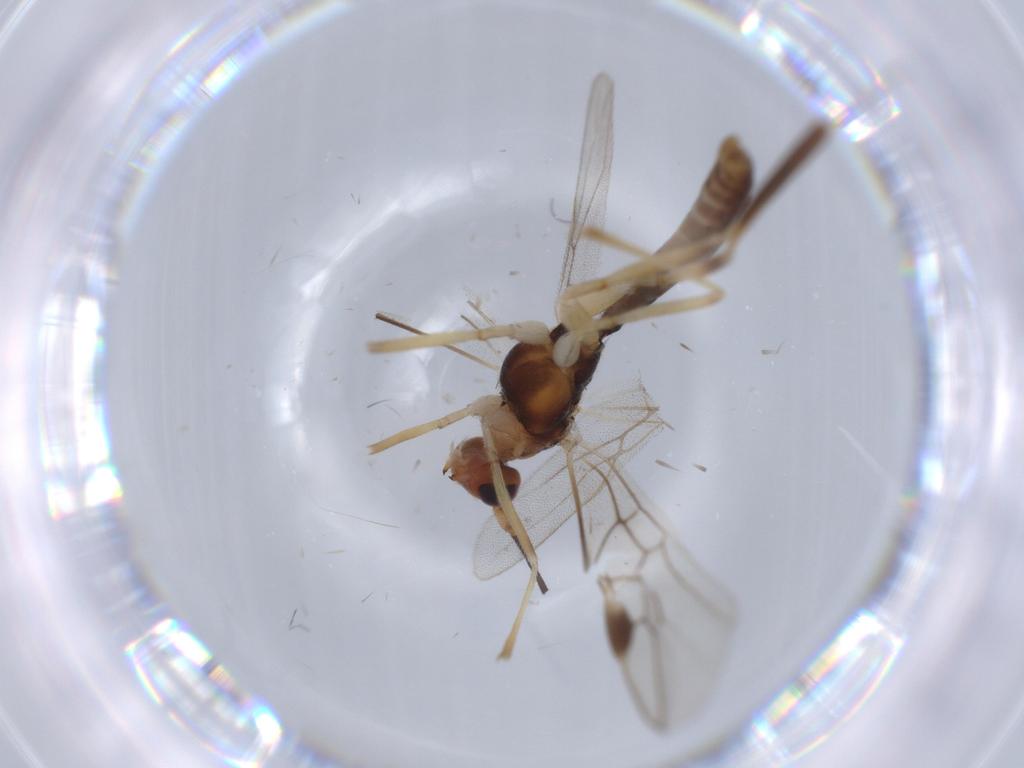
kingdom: Animalia
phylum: Arthropoda
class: Insecta
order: Hymenoptera
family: Braconidae
